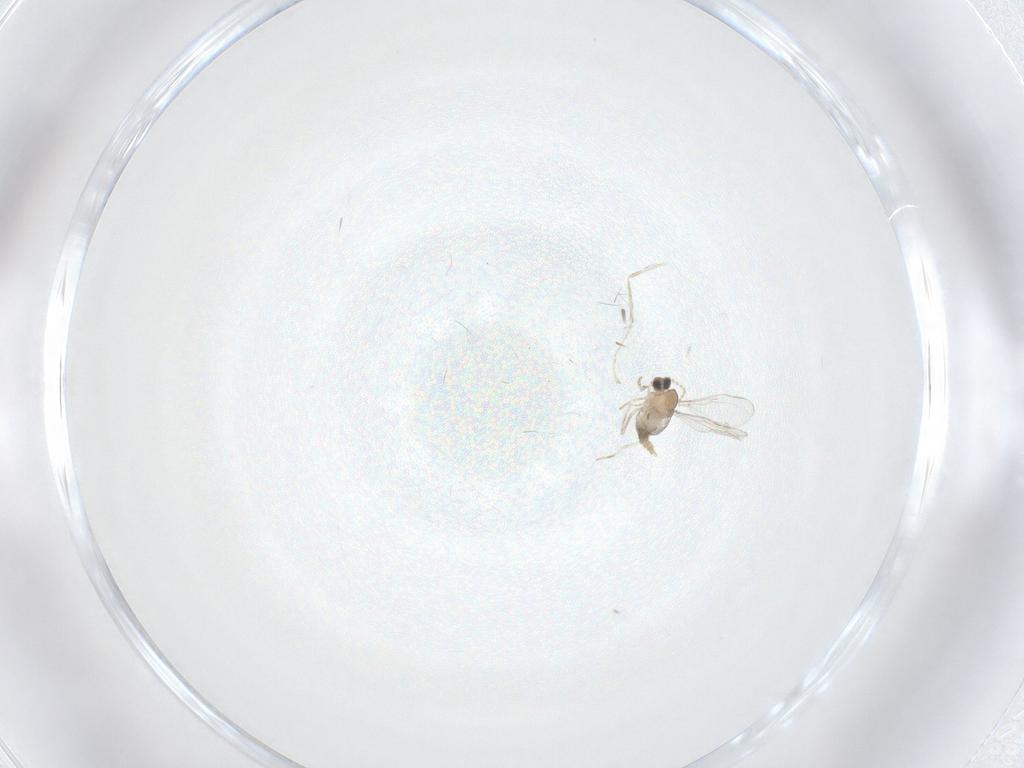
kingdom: Animalia
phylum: Arthropoda
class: Insecta
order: Diptera
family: Cecidomyiidae
